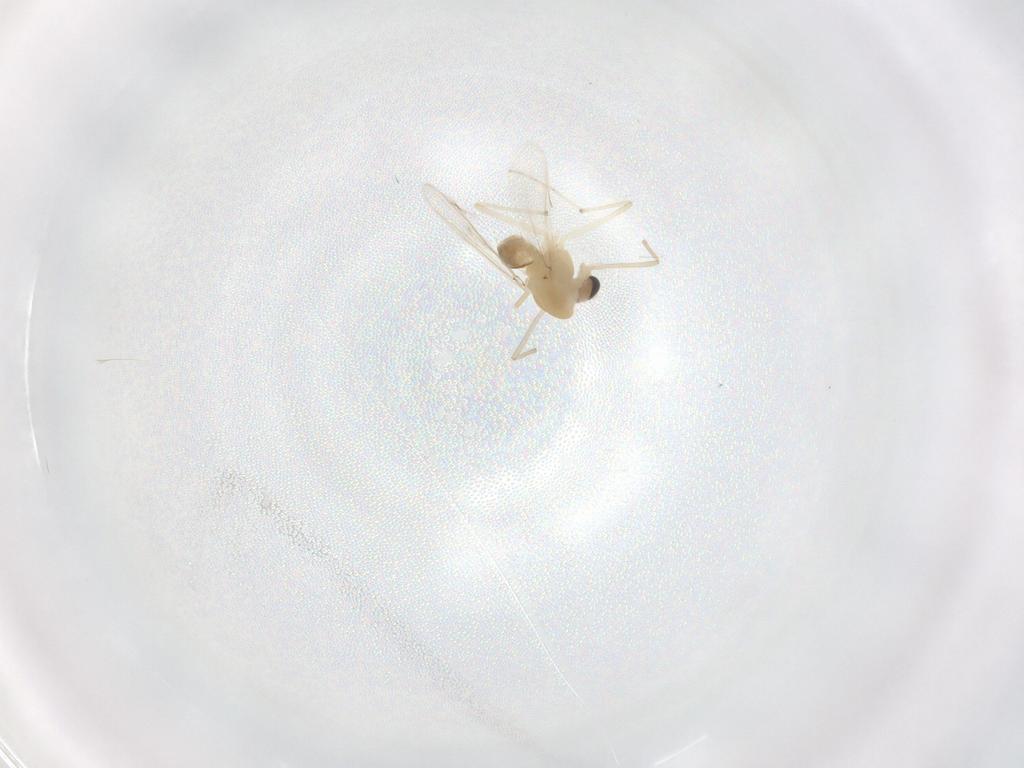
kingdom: Animalia
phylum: Arthropoda
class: Insecta
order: Diptera
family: Chironomidae
